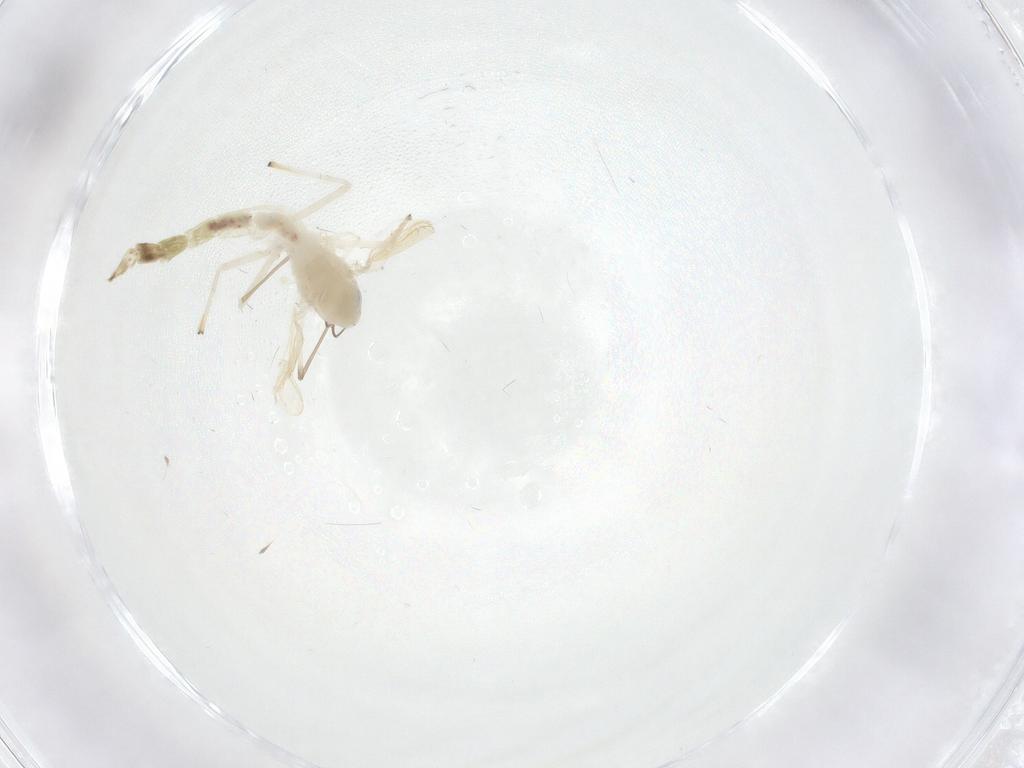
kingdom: Animalia
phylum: Arthropoda
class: Insecta
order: Diptera
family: Chironomidae
